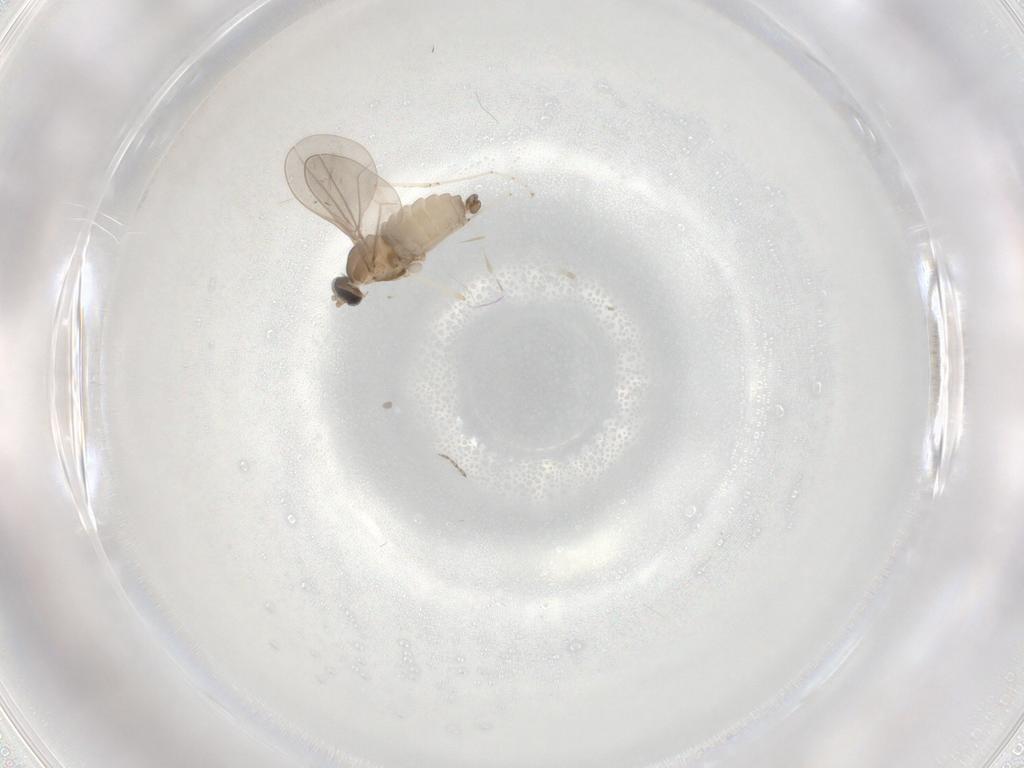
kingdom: Animalia
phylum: Arthropoda
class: Insecta
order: Diptera
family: Cecidomyiidae
